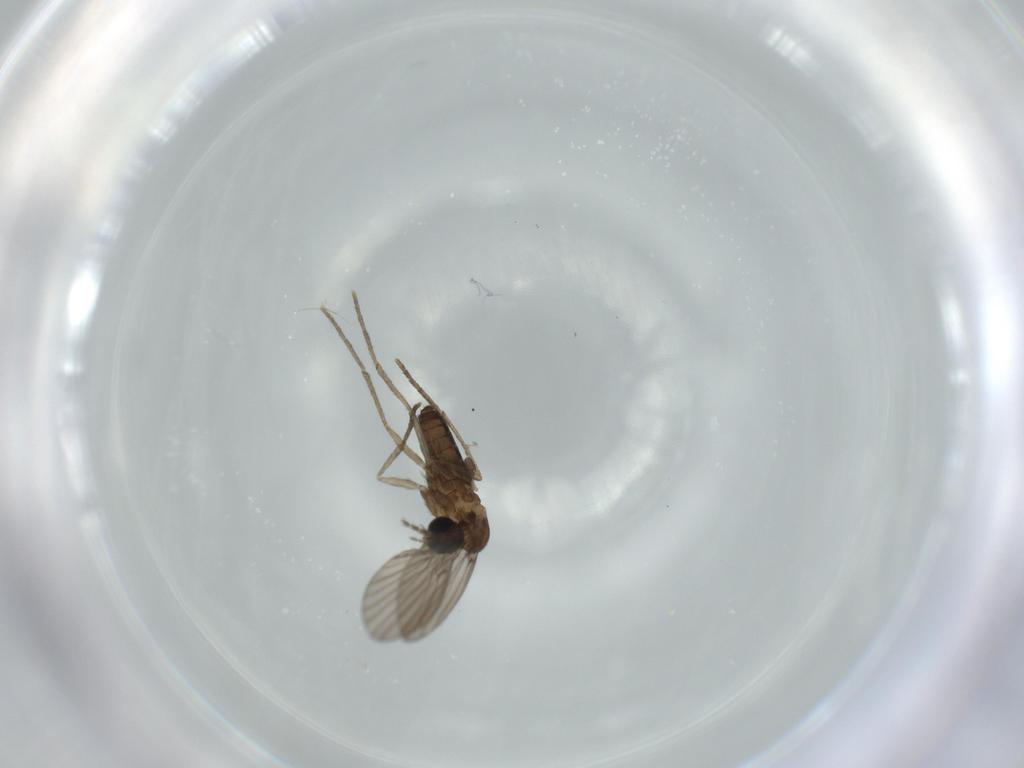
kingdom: Animalia
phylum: Arthropoda
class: Insecta
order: Diptera
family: Psychodidae
